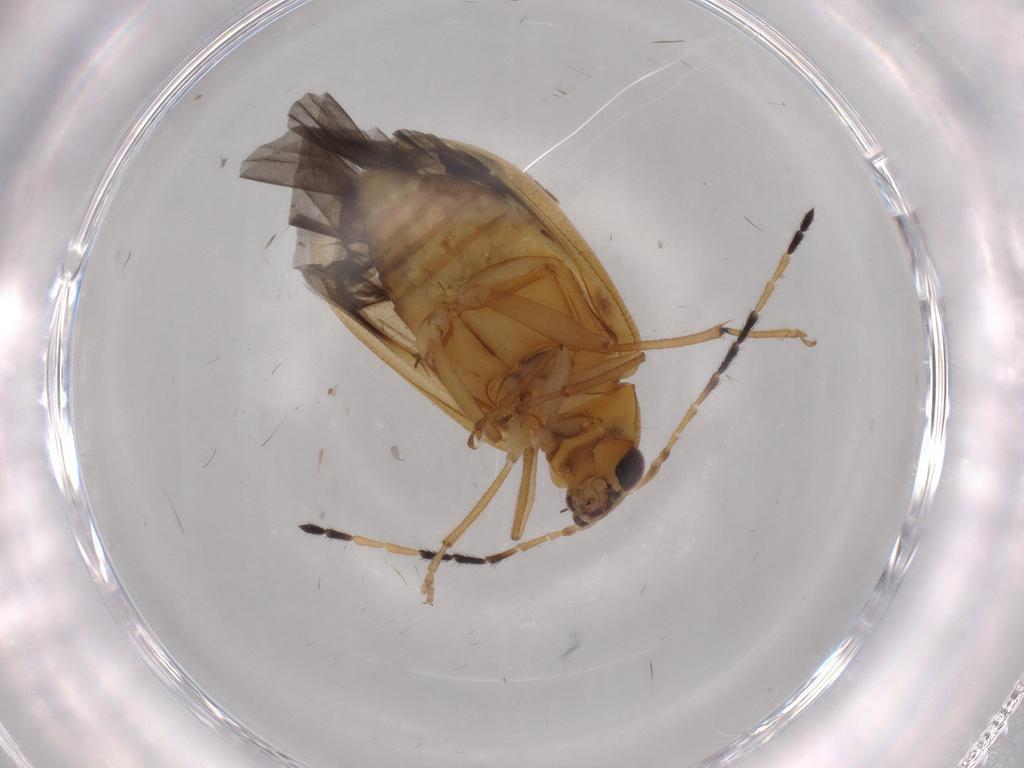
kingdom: Animalia
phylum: Arthropoda
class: Insecta
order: Coleoptera
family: Chrysomelidae
